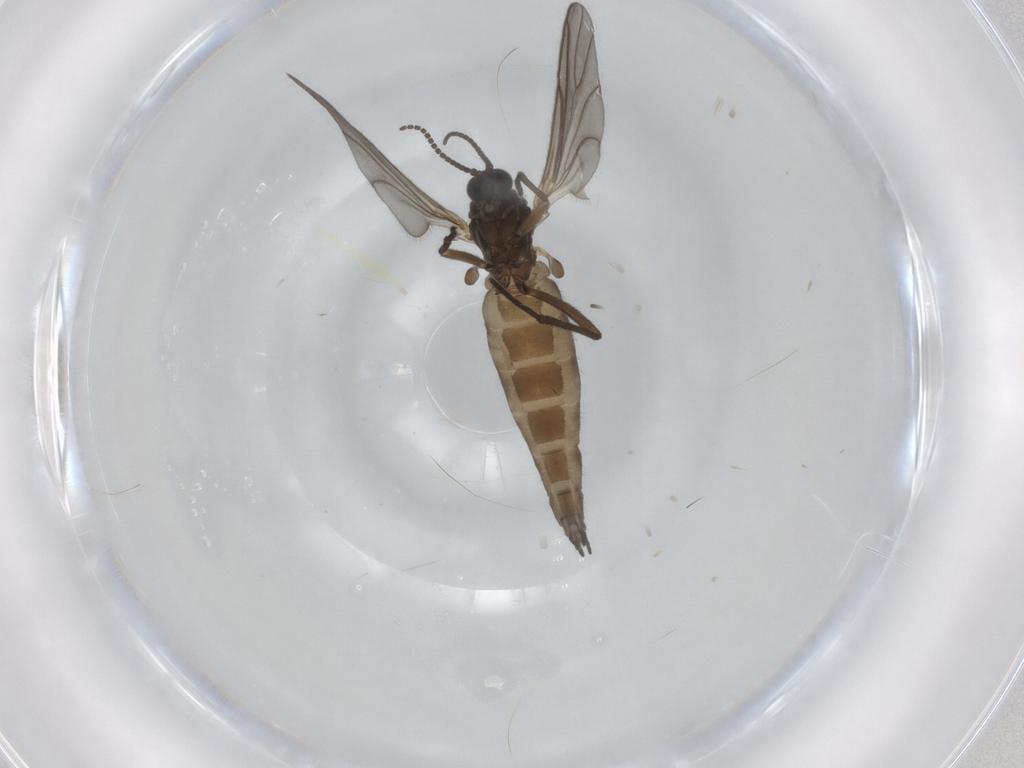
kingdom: Animalia
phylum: Arthropoda
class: Insecta
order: Diptera
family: Sciaridae
